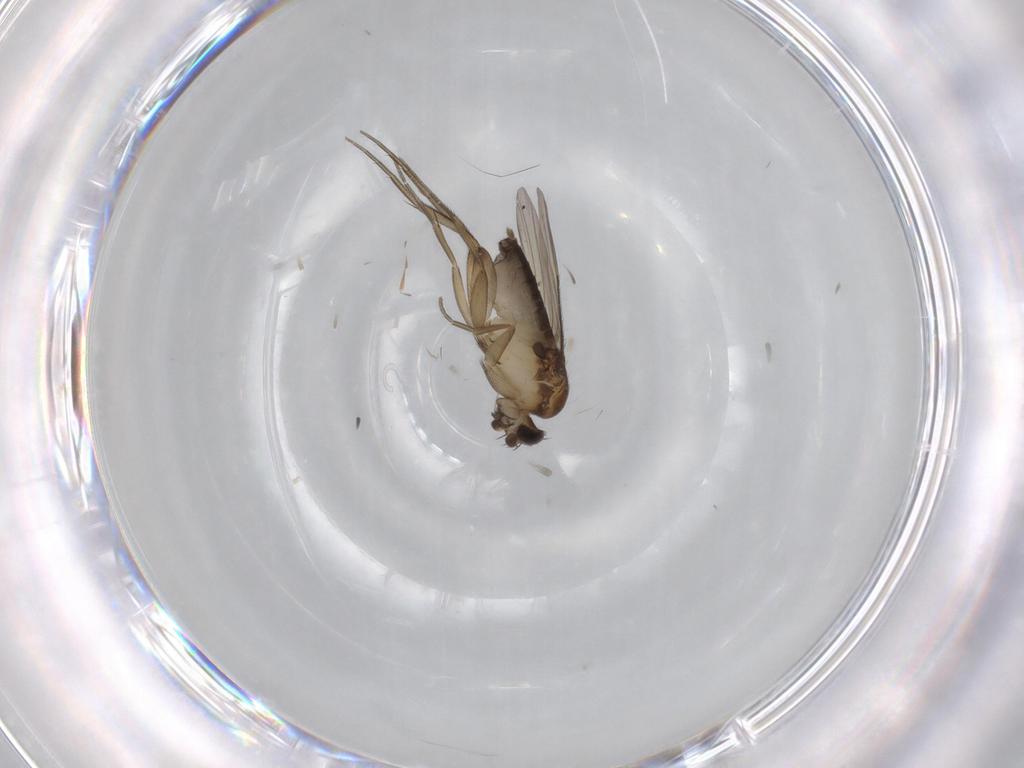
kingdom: Animalia
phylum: Arthropoda
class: Insecta
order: Diptera
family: Phoridae
